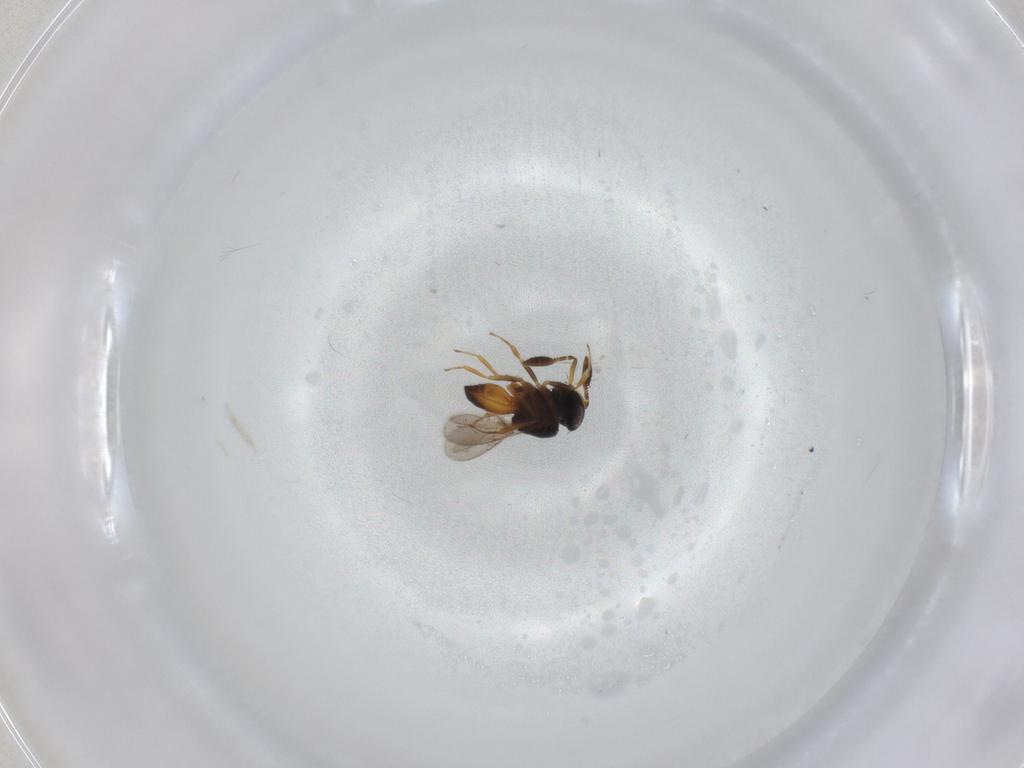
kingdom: Animalia
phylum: Arthropoda
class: Insecta
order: Hymenoptera
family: Scelionidae
